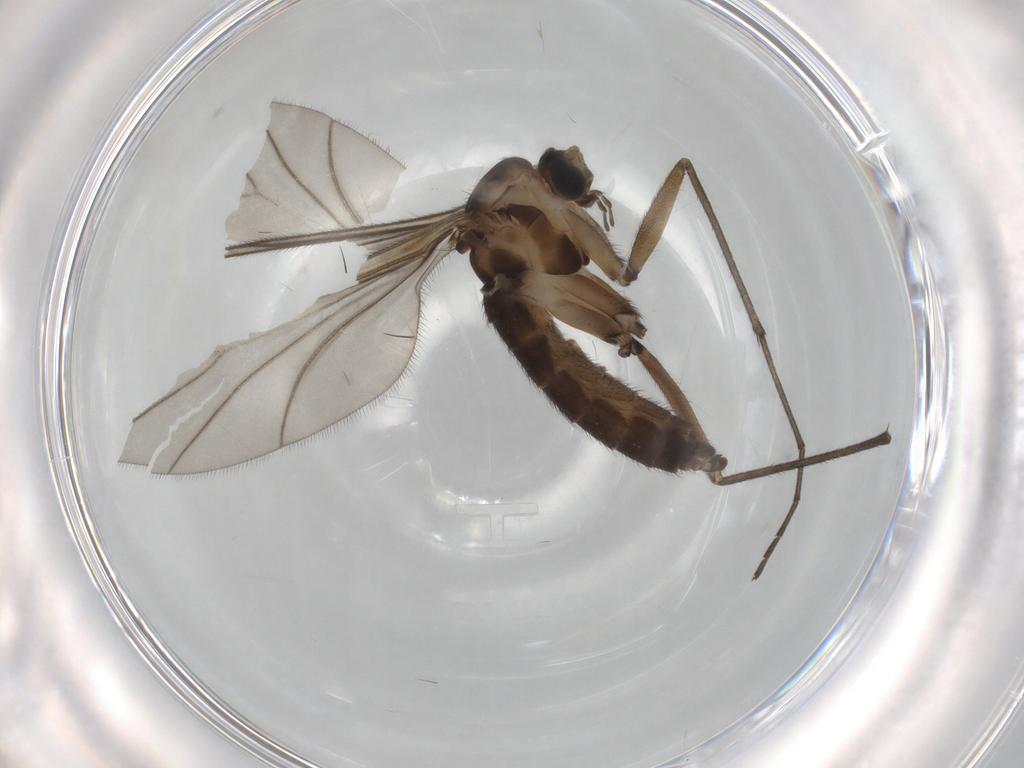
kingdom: Animalia
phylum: Arthropoda
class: Insecta
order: Diptera
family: Sciaridae
